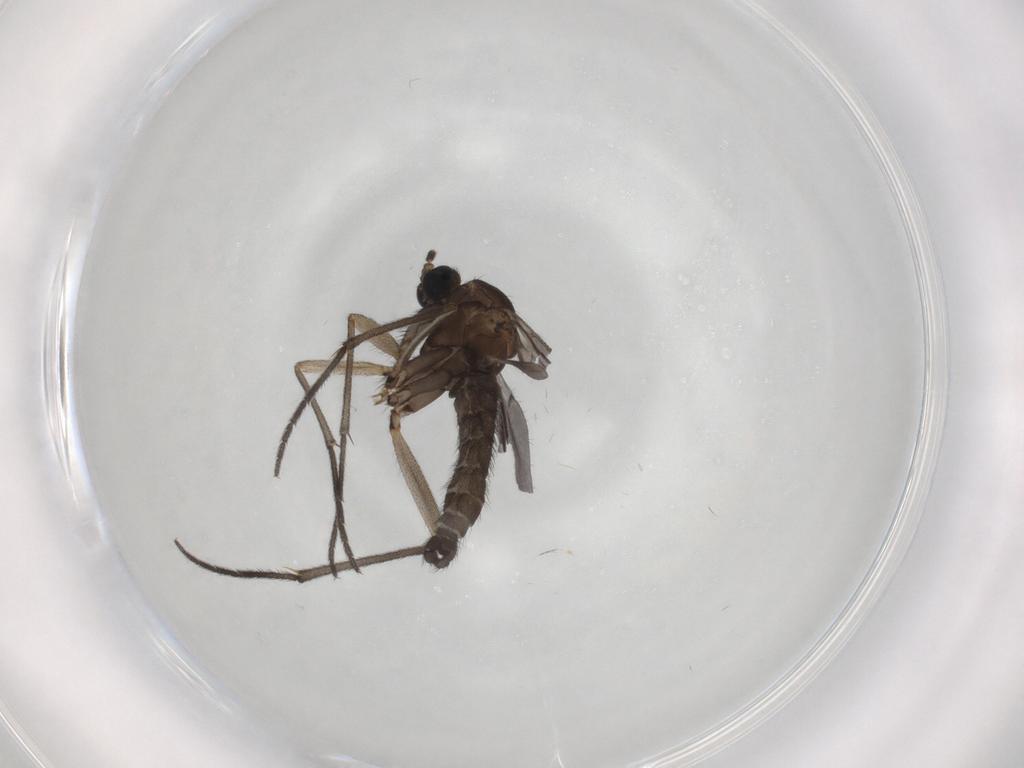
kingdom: Animalia
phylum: Arthropoda
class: Insecta
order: Diptera
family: Sciaridae
